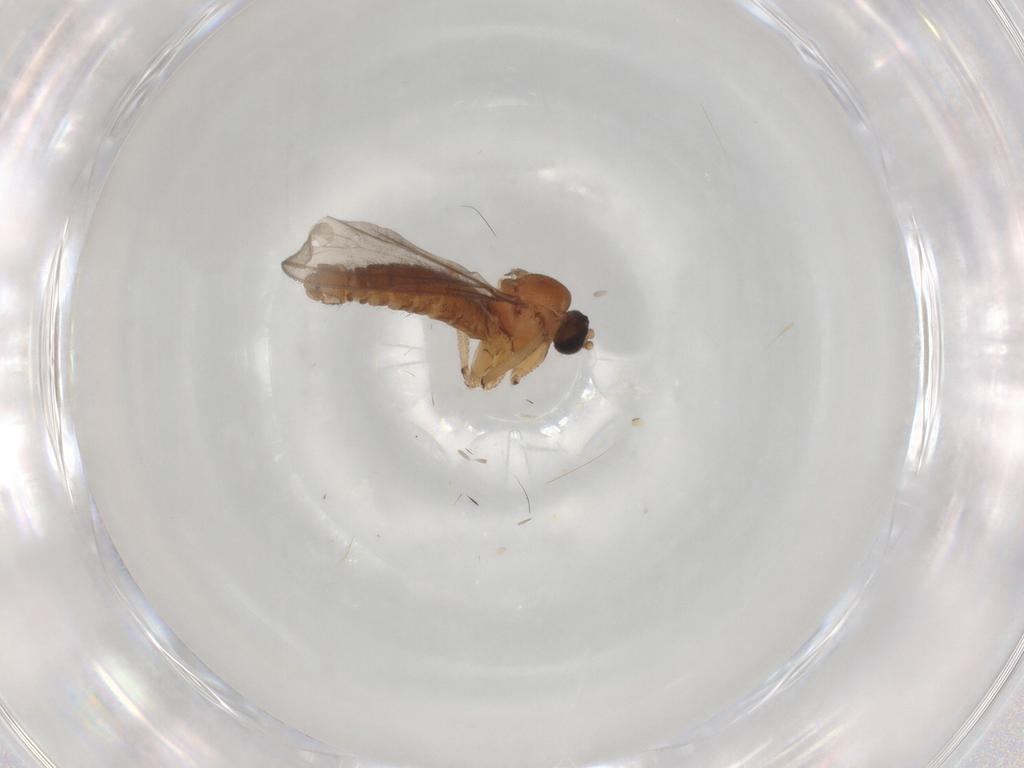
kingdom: Animalia
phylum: Arthropoda
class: Insecta
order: Diptera
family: Sciaridae
